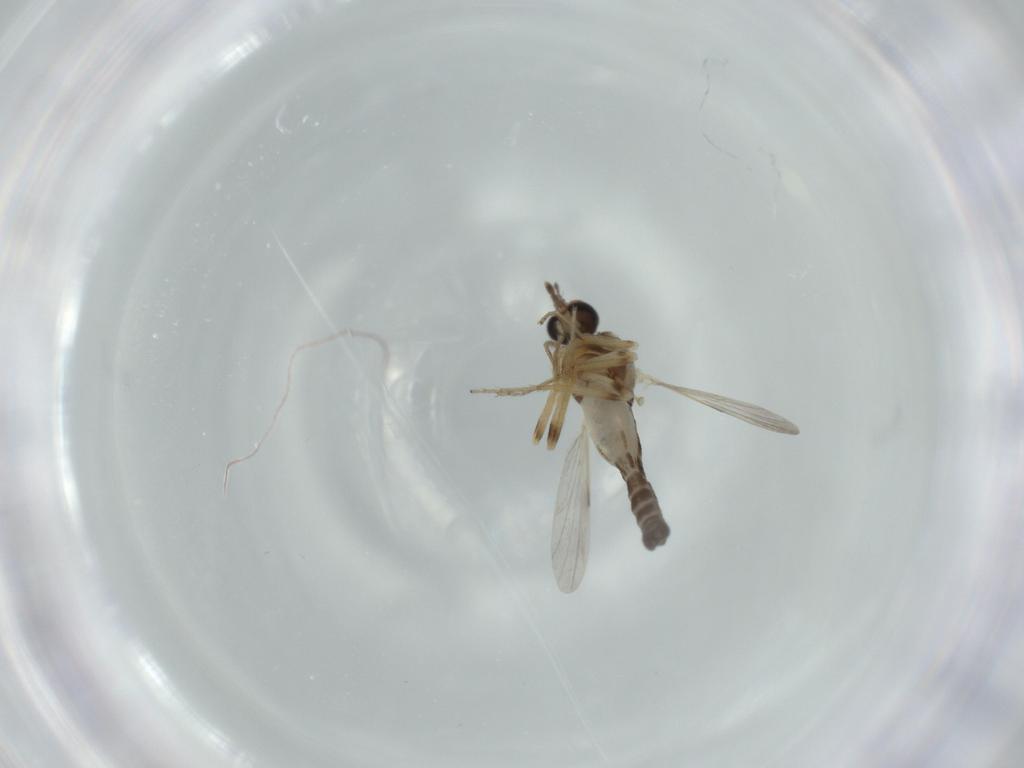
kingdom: Animalia
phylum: Arthropoda
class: Insecta
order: Diptera
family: Ceratopogonidae
